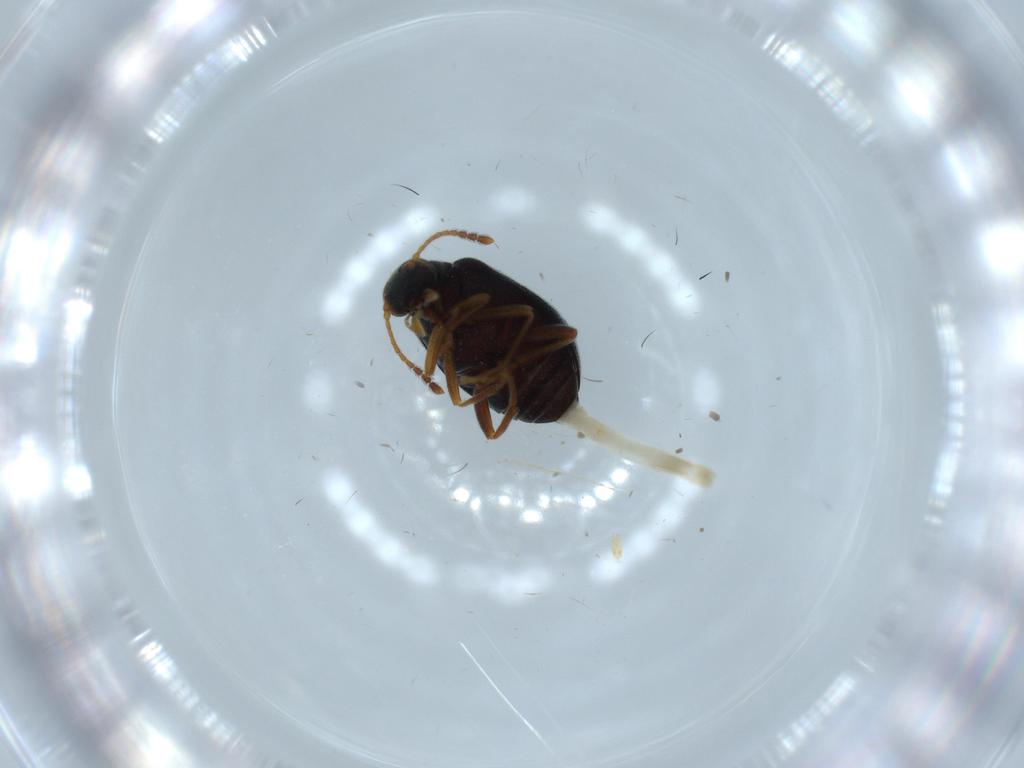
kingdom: Animalia
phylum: Arthropoda
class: Insecta
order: Coleoptera
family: Aderidae
